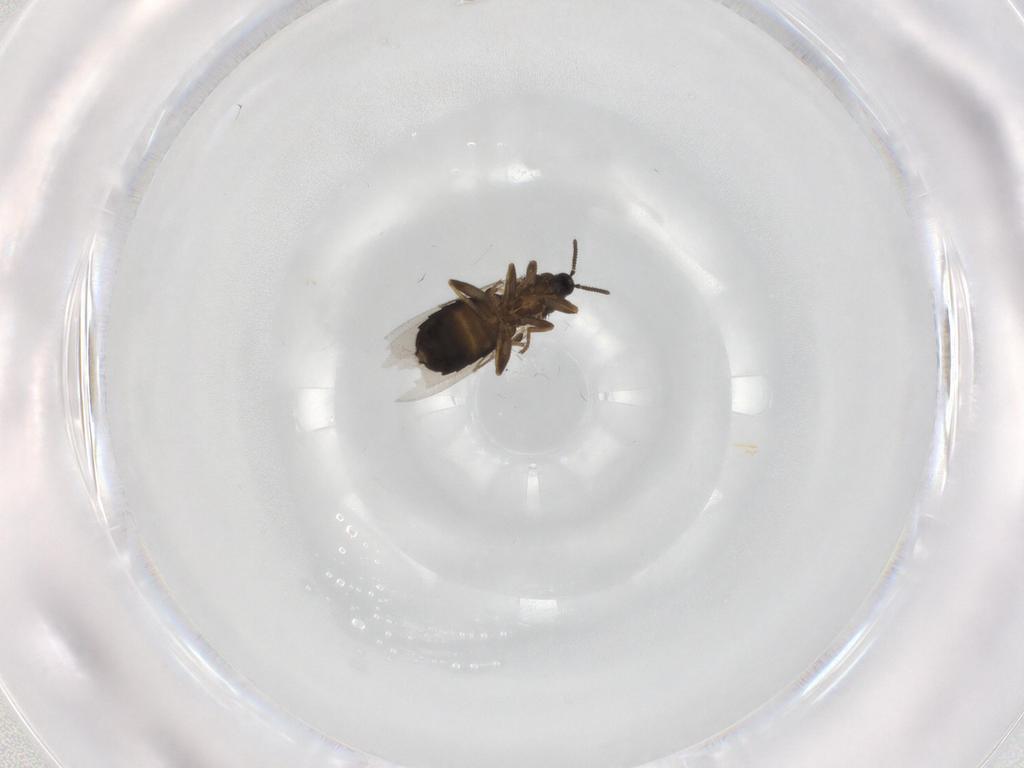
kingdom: Animalia
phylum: Arthropoda
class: Insecta
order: Diptera
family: Scatopsidae
